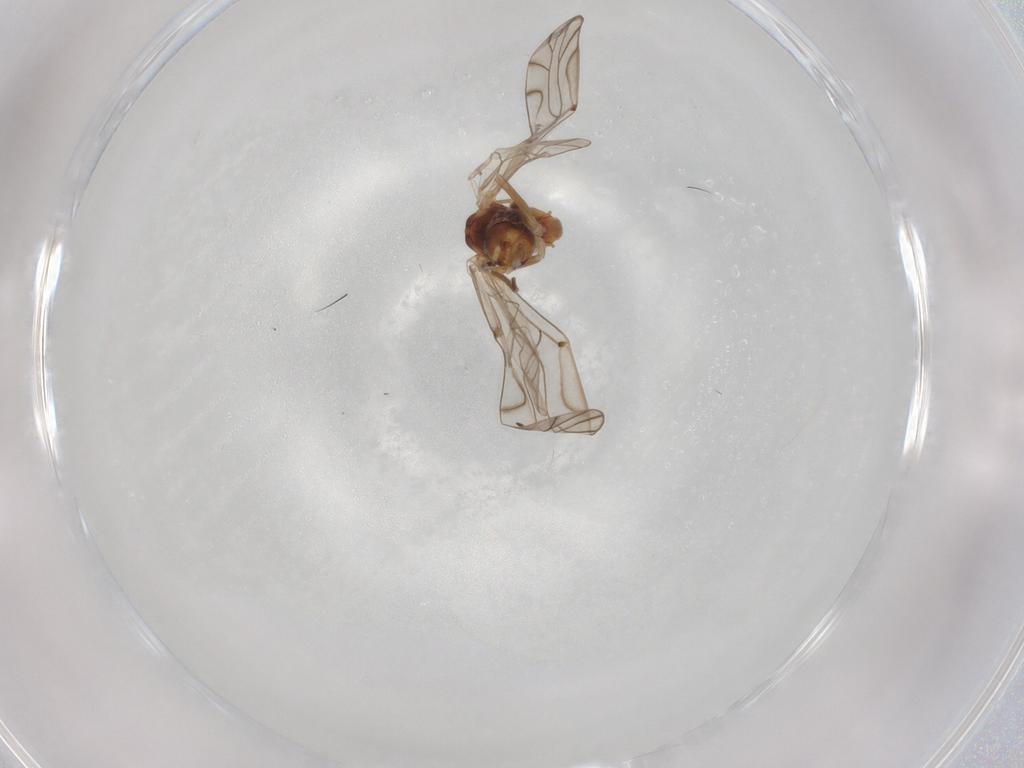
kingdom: Animalia
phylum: Arthropoda
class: Insecta
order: Psocodea
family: Lachesillidae
